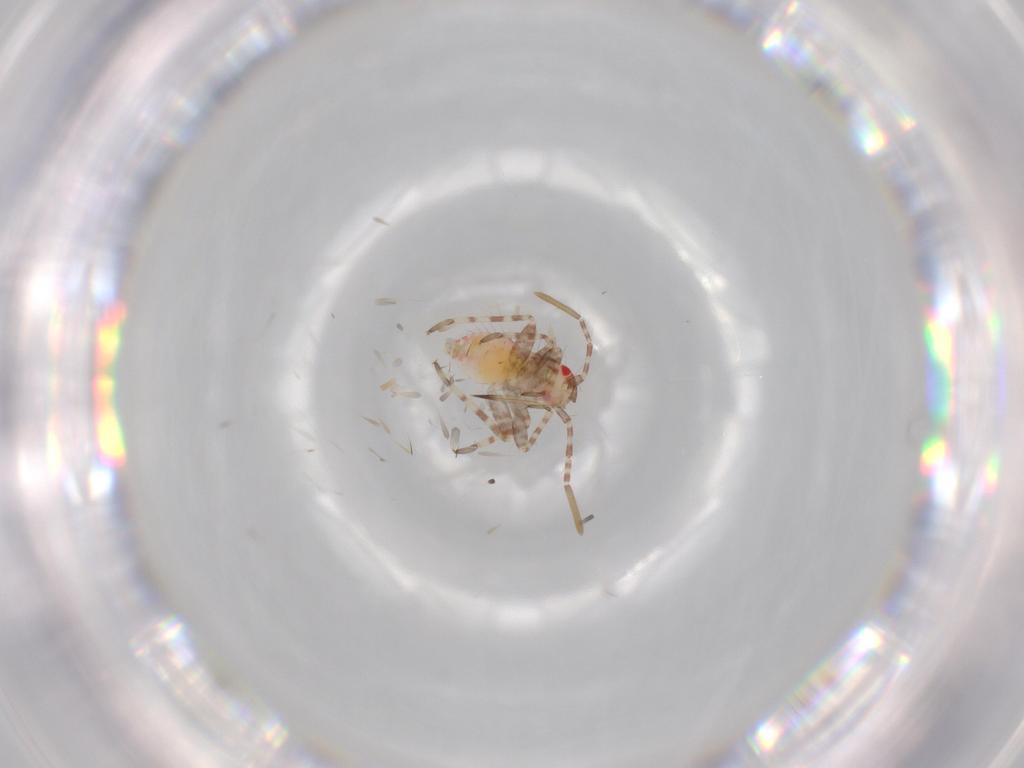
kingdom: Animalia
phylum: Arthropoda
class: Insecta
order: Hemiptera
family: Miridae
